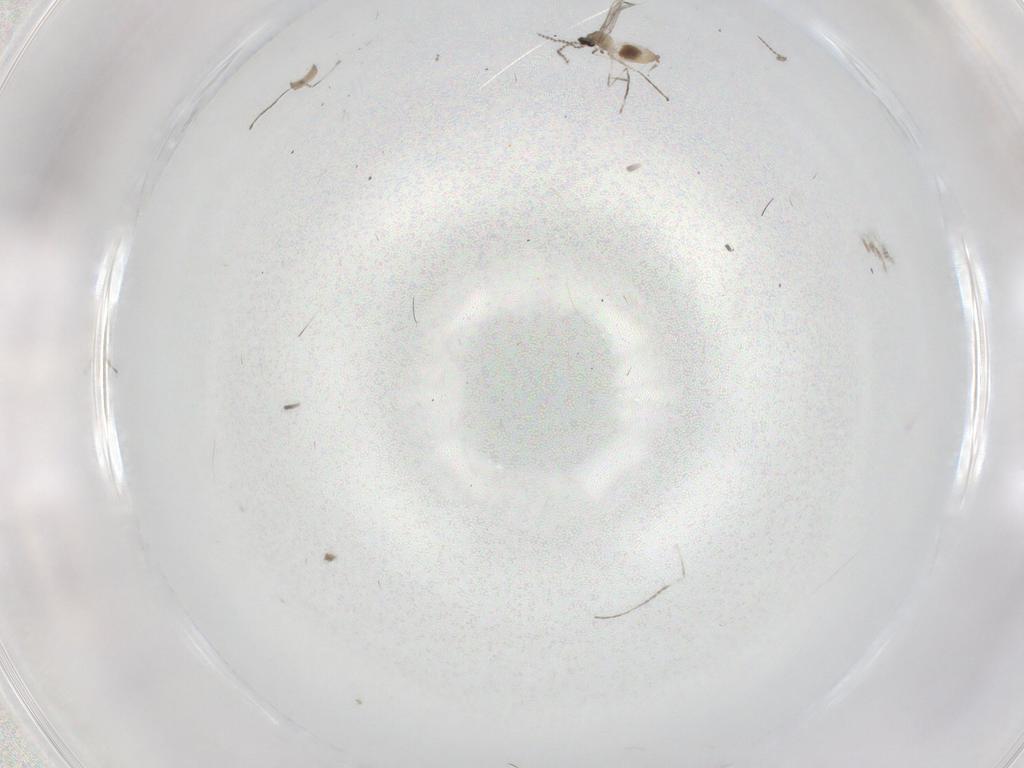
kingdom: Animalia
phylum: Arthropoda
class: Insecta
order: Diptera
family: Cecidomyiidae
